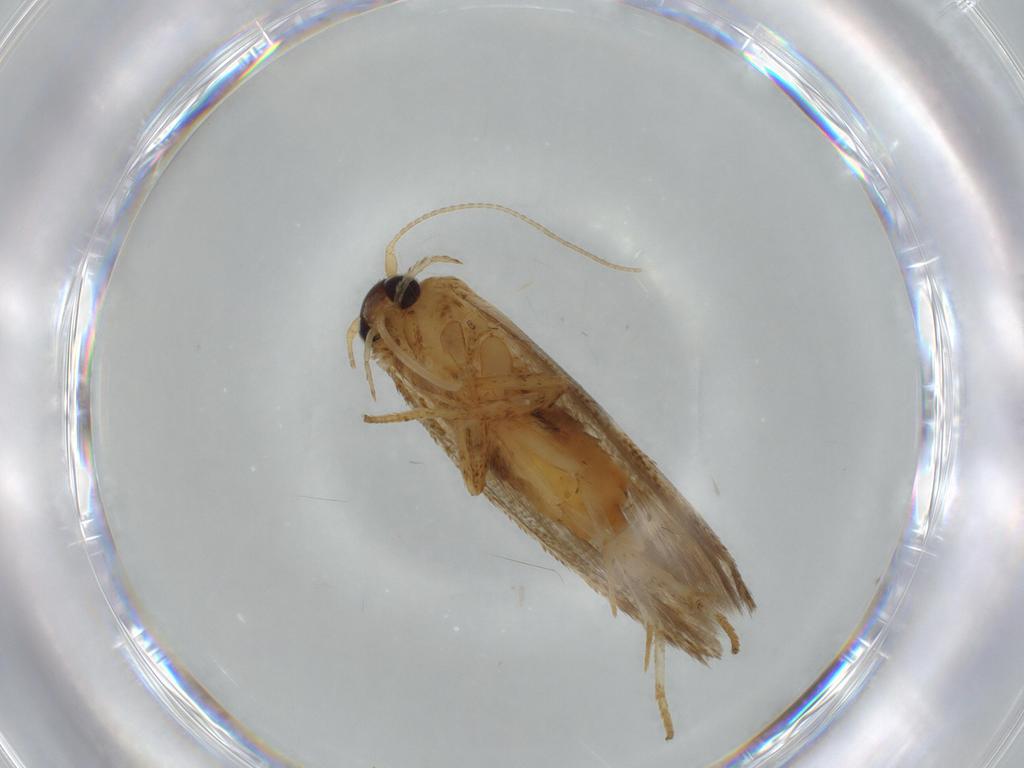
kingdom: Animalia
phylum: Arthropoda
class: Insecta
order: Lepidoptera
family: Coleophoridae
